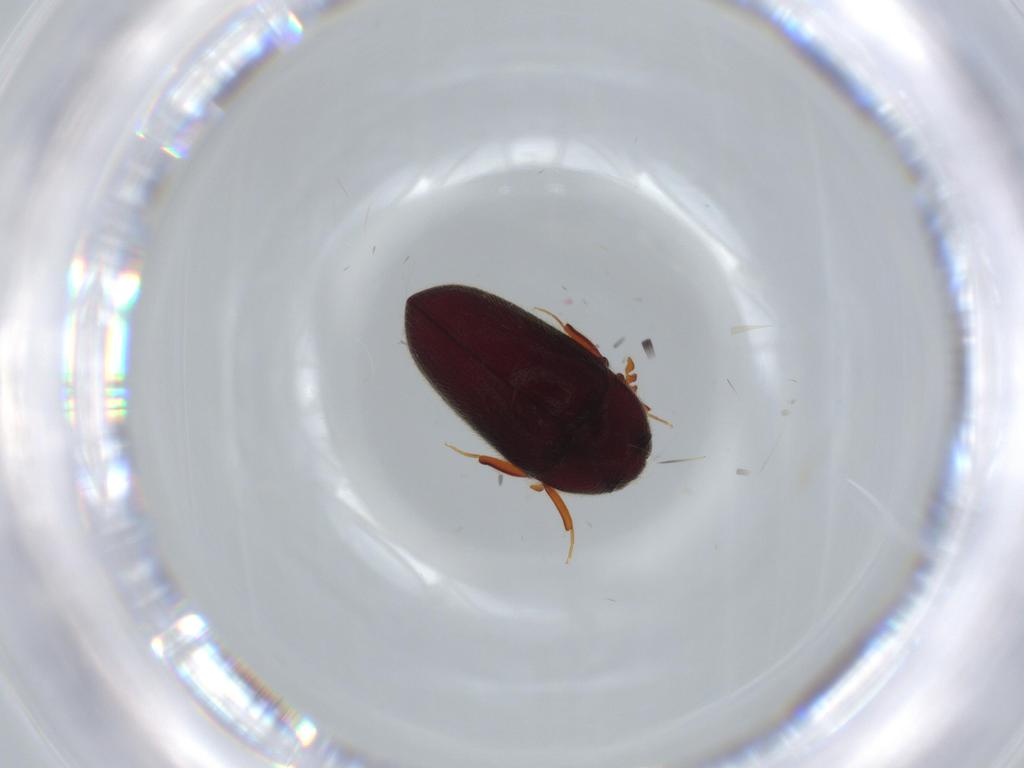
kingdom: Animalia
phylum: Arthropoda
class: Insecta
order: Coleoptera
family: Throscidae
